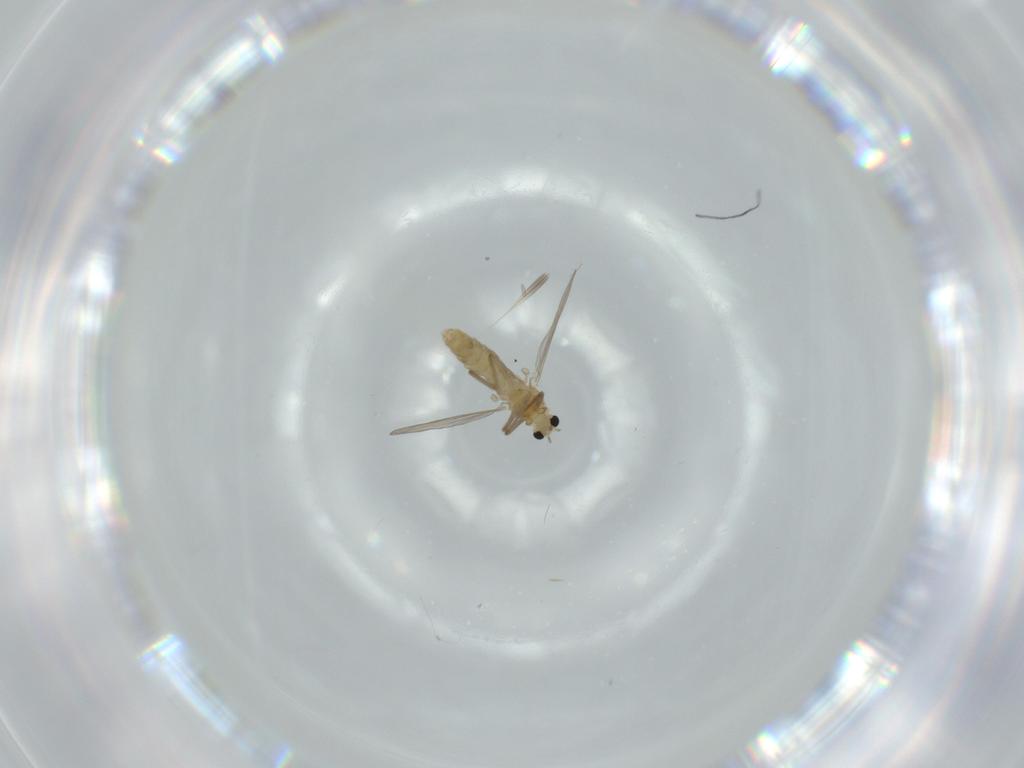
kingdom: Animalia
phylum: Arthropoda
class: Insecta
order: Diptera
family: Chironomidae
